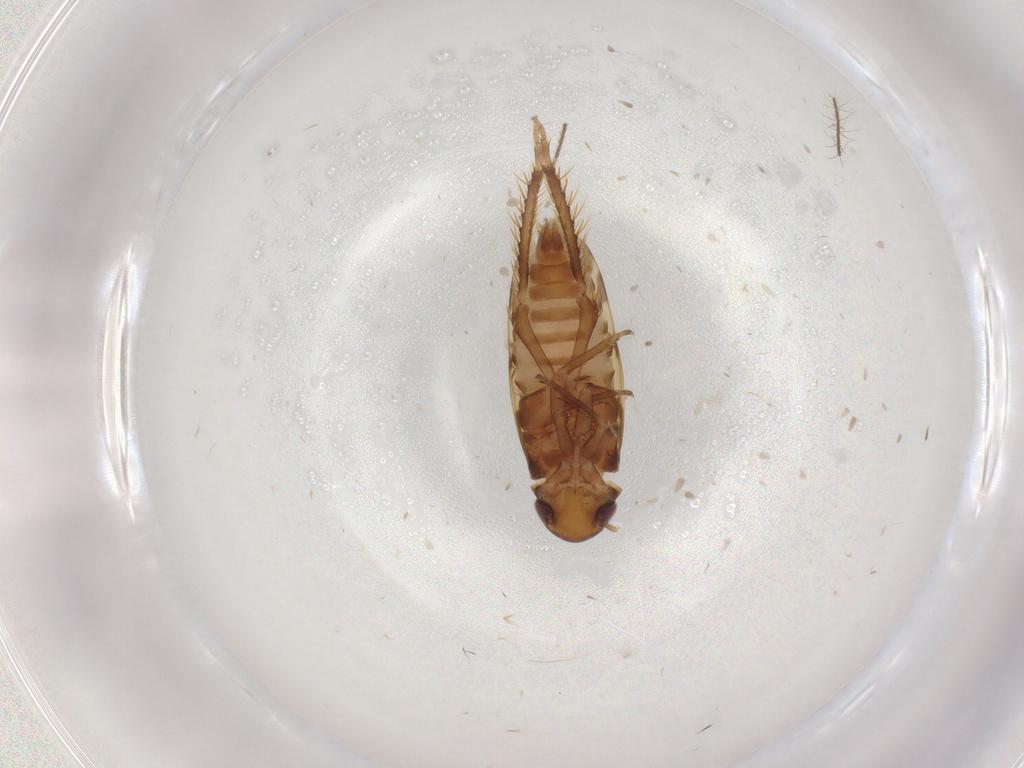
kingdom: Animalia
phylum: Arthropoda
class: Insecta
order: Hemiptera
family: Cicadellidae
